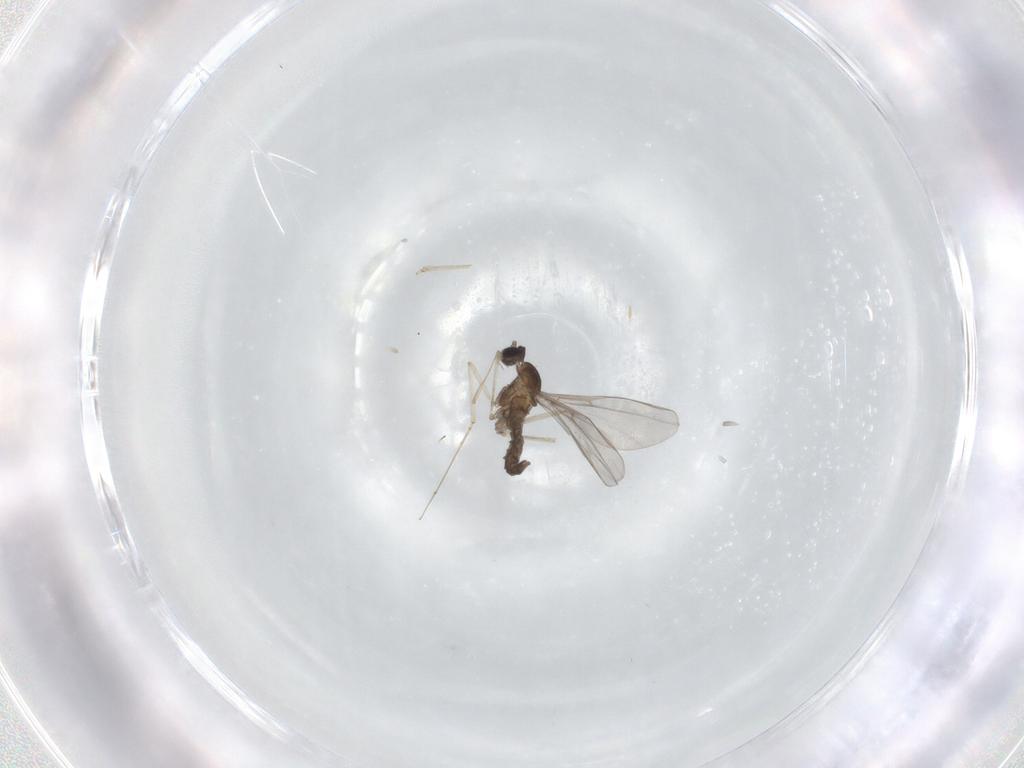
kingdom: Animalia
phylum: Arthropoda
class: Insecta
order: Diptera
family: Cecidomyiidae
